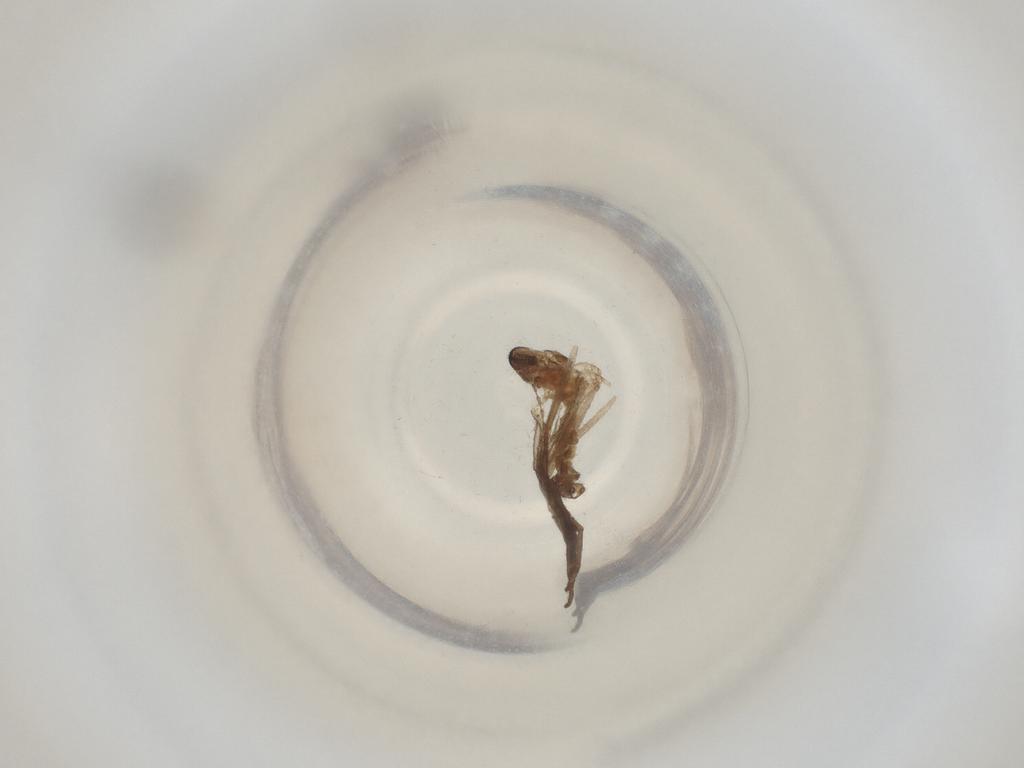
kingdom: Animalia
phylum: Arthropoda
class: Insecta
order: Diptera
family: Cecidomyiidae
